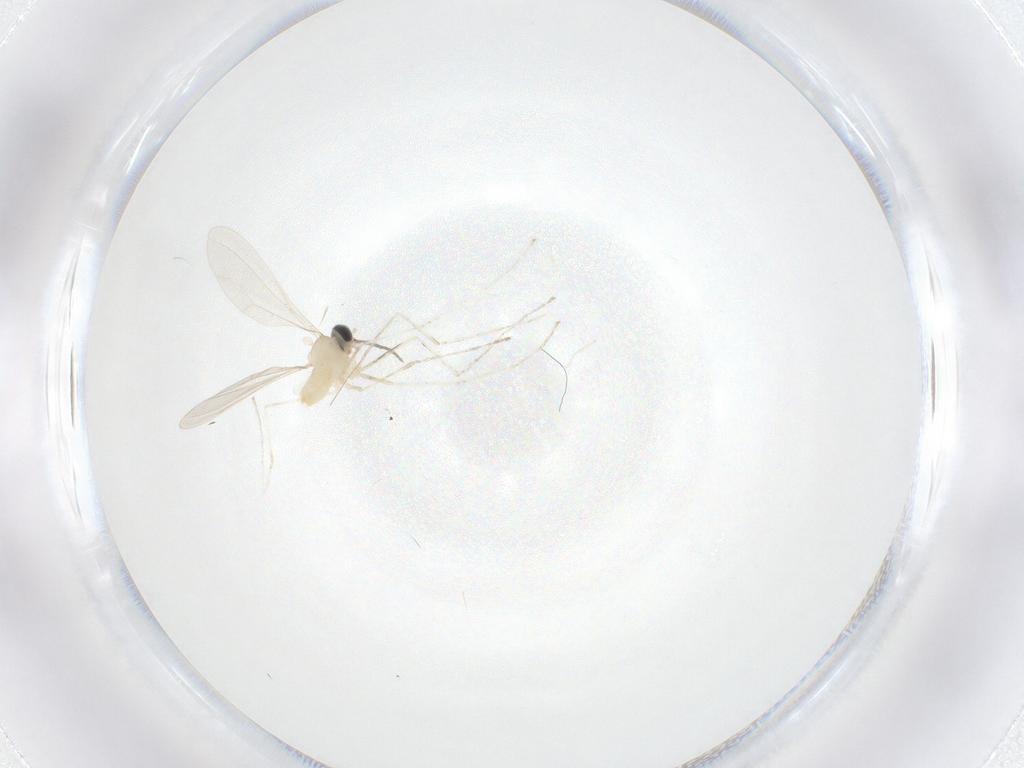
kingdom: Animalia
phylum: Arthropoda
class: Insecta
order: Diptera
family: Cecidomyiidae
